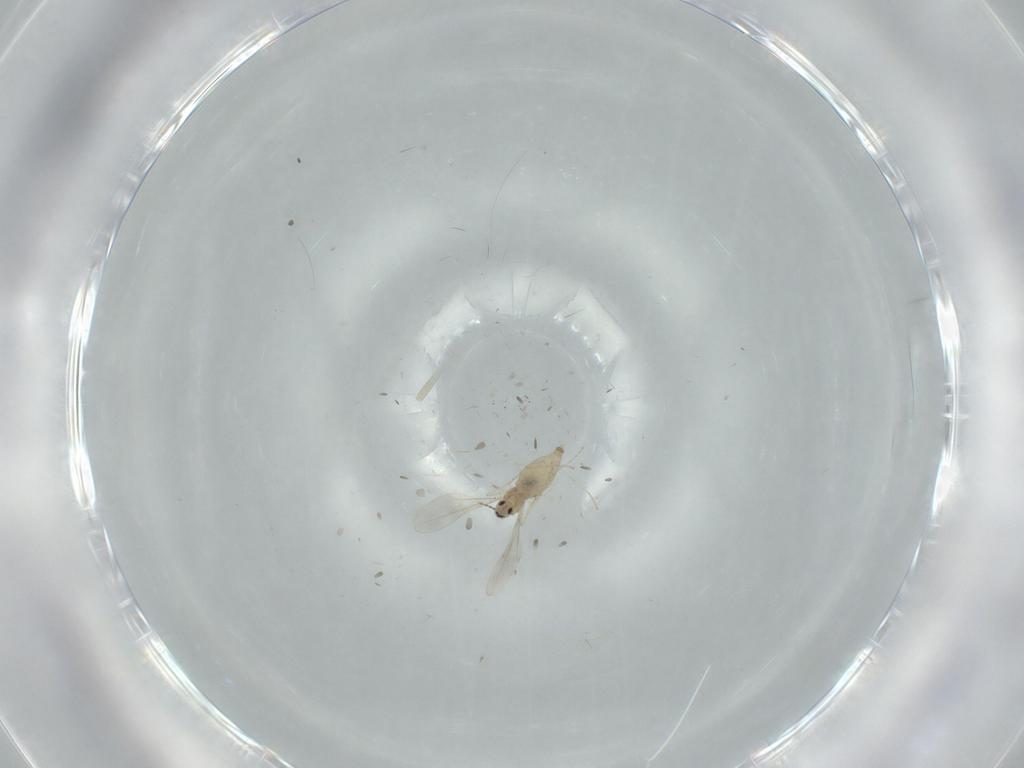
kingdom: Animalia
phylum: Arthropoda
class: Insecta
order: Diptera
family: Cecidomyiidae
